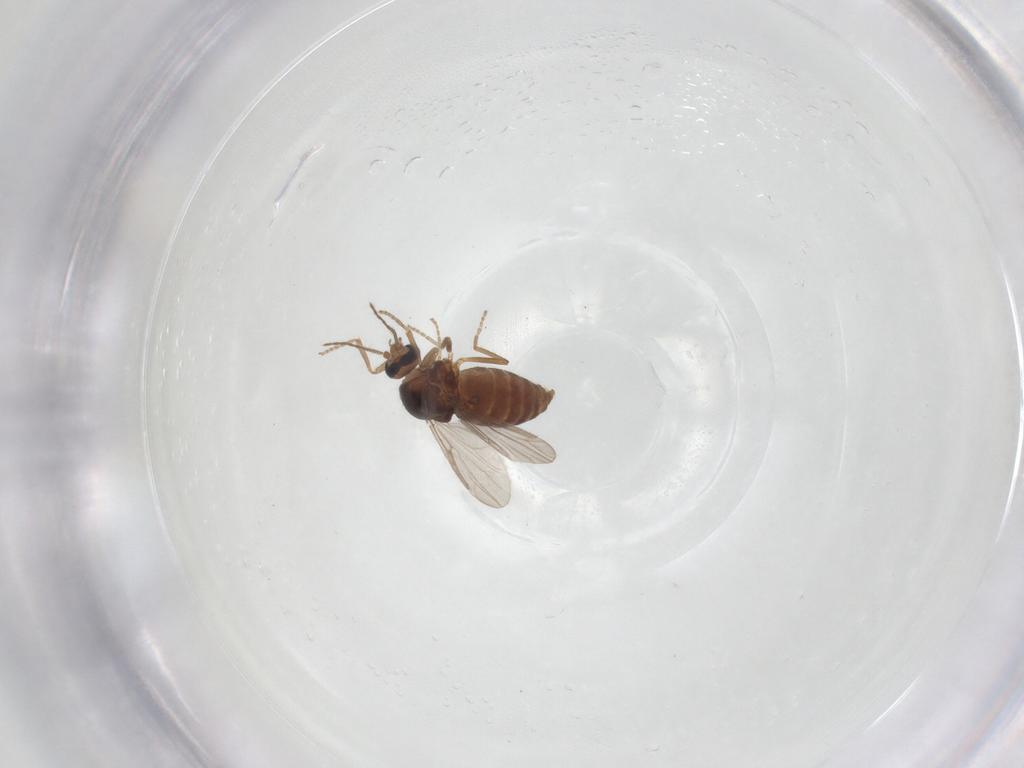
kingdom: Animalia
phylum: Arthropoda
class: Insecta
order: Diptera
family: Ceratopogonidae
